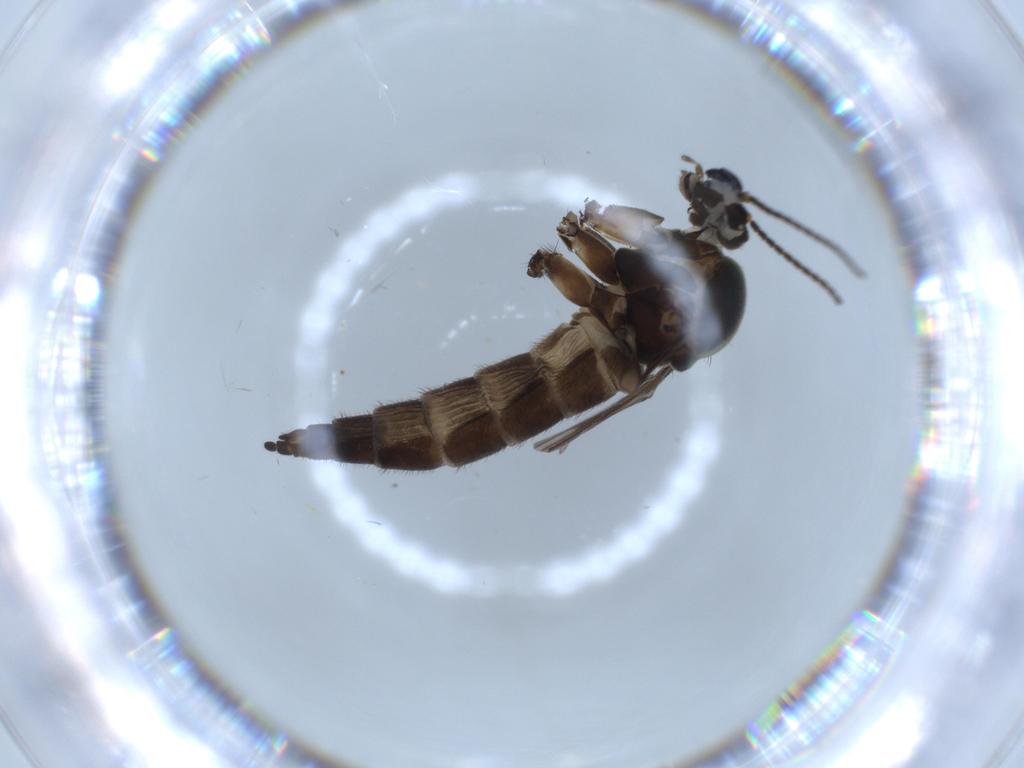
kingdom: Animalia
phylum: Arthropoda
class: Insecta
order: Diptera
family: Sciaridae
